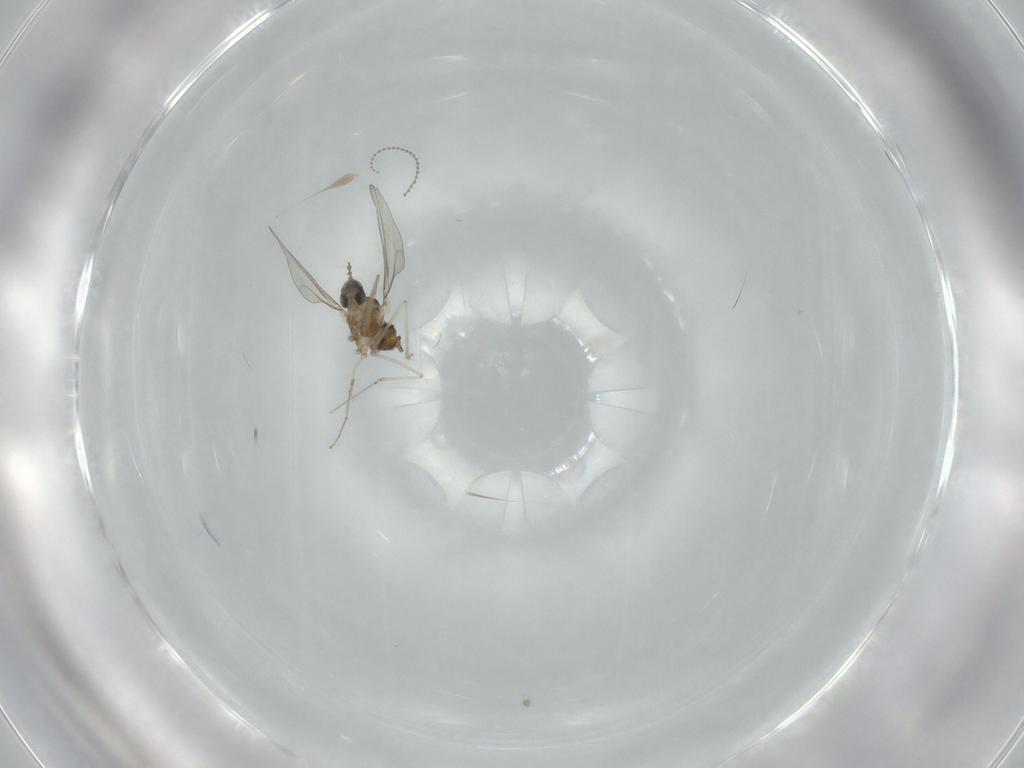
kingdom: Animalia
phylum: Arthropoda
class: Insecta
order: Diptera
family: Cecidomyiidae
